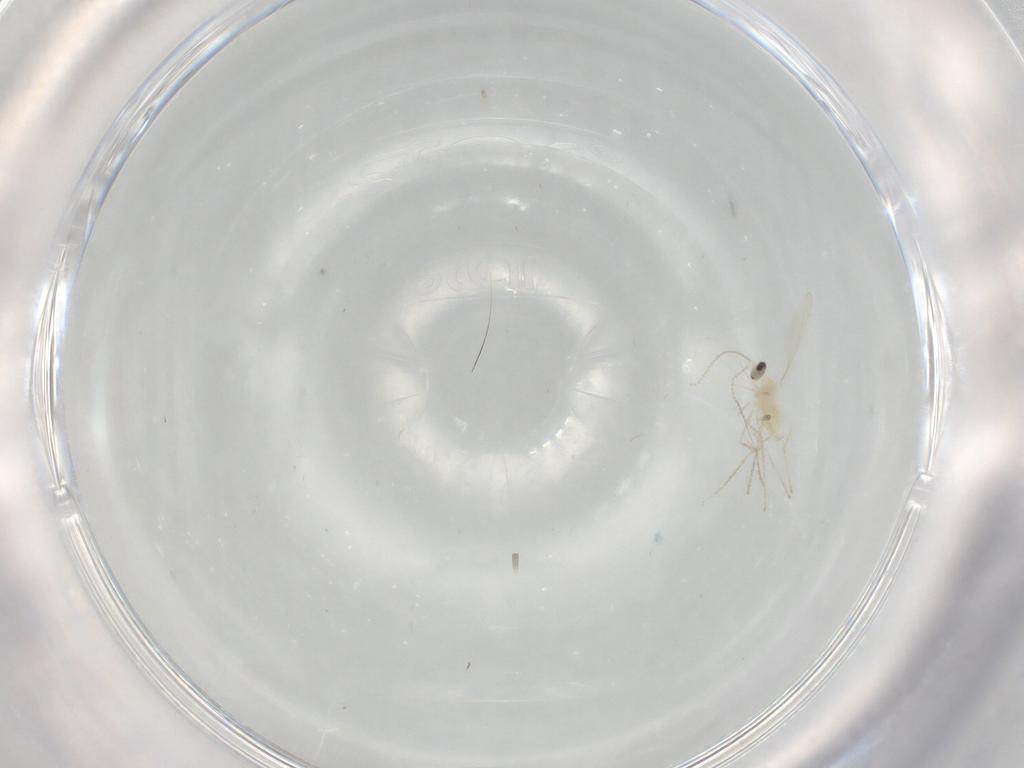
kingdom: Animalia
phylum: Arthropoda
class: Insecta
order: Diptera
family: Cecidomyiidae
